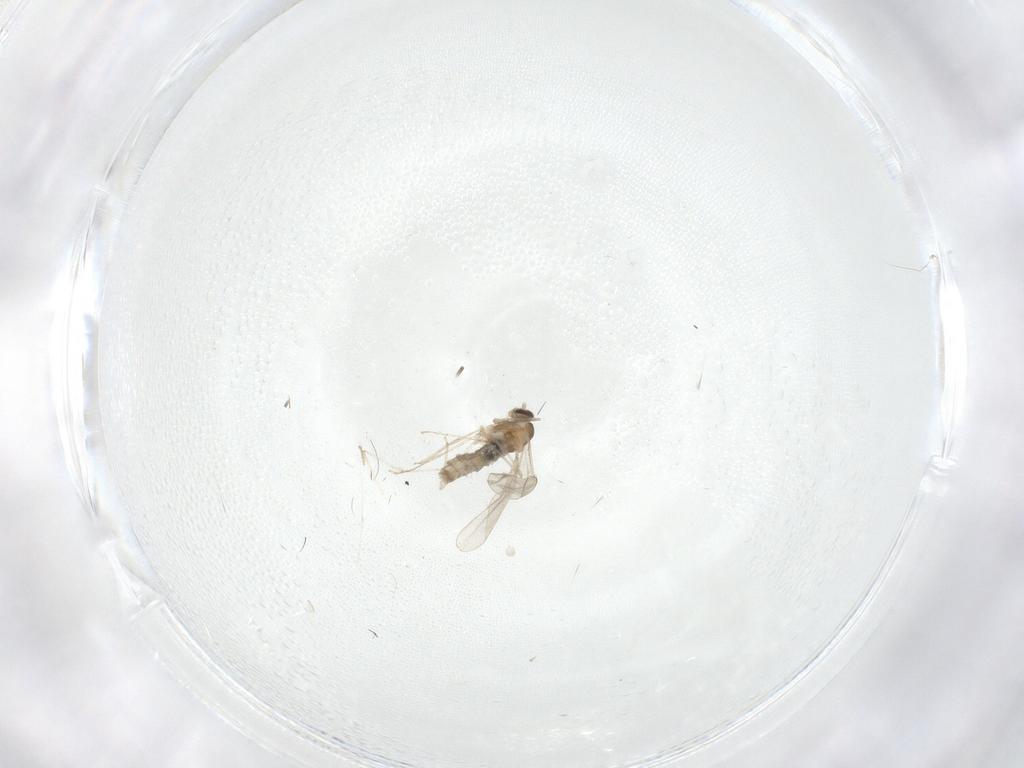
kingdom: Animalia
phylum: Arthropoda
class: Insecta
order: Diptera
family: Cecidomyiidae
